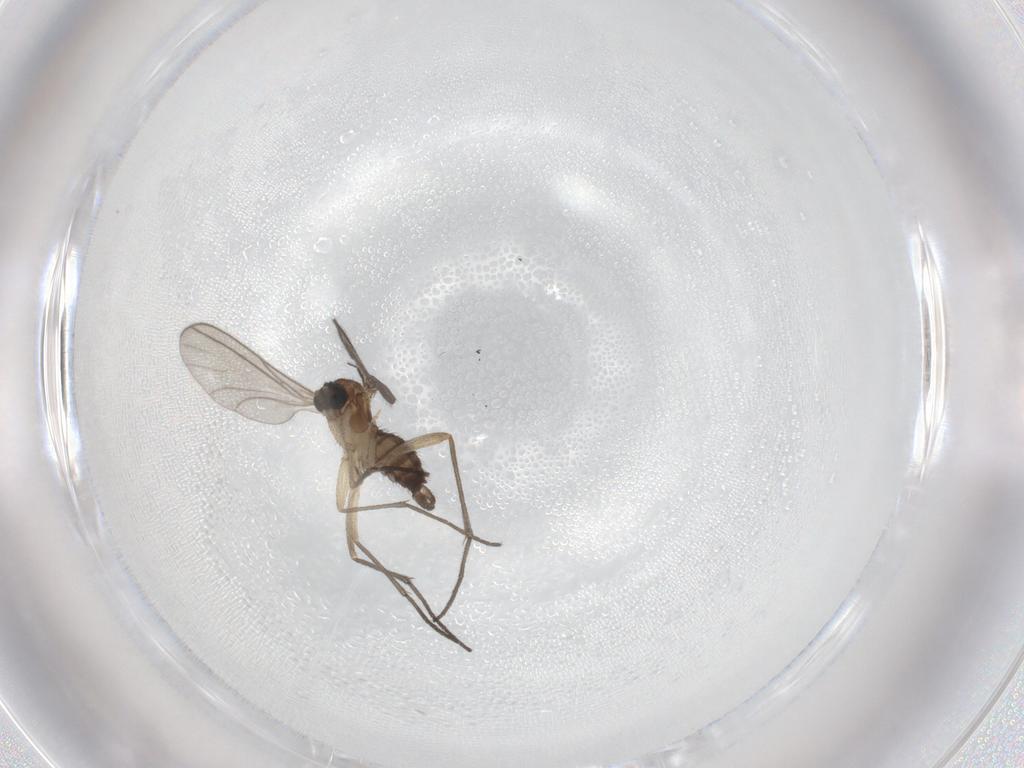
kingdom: Animalia
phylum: Arthropoda
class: Insecta
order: Diptera
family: Sciaridae
